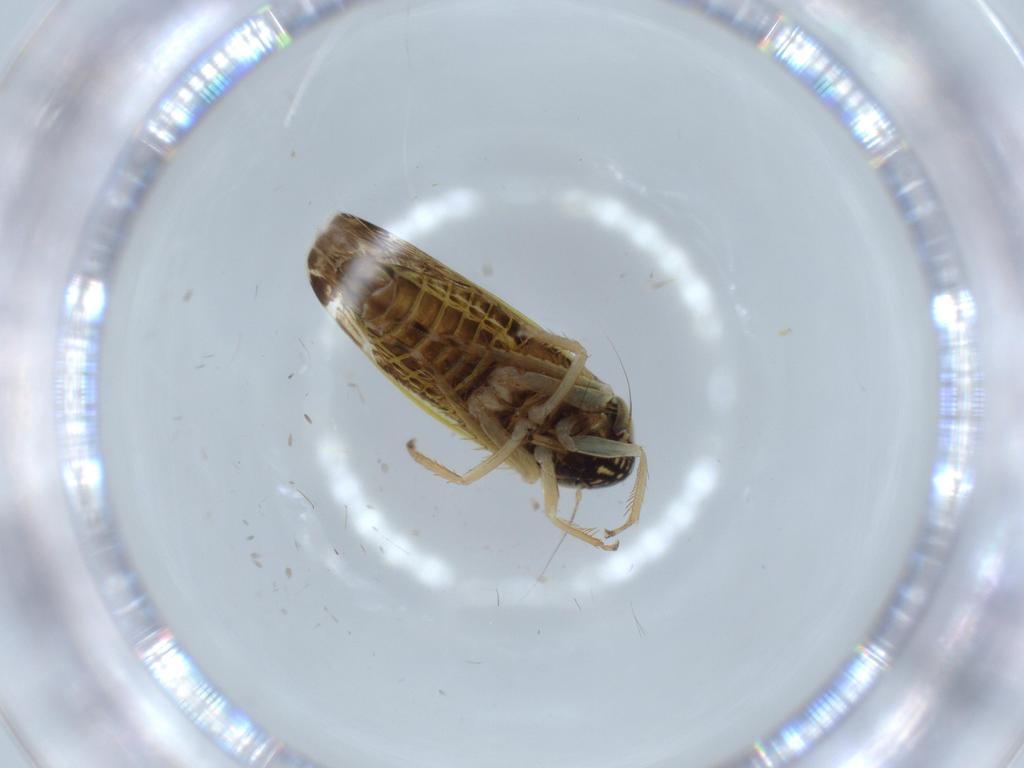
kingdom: Animalia
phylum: Arthropoda
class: Insecta
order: Hemiptera
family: Cicadellidae
